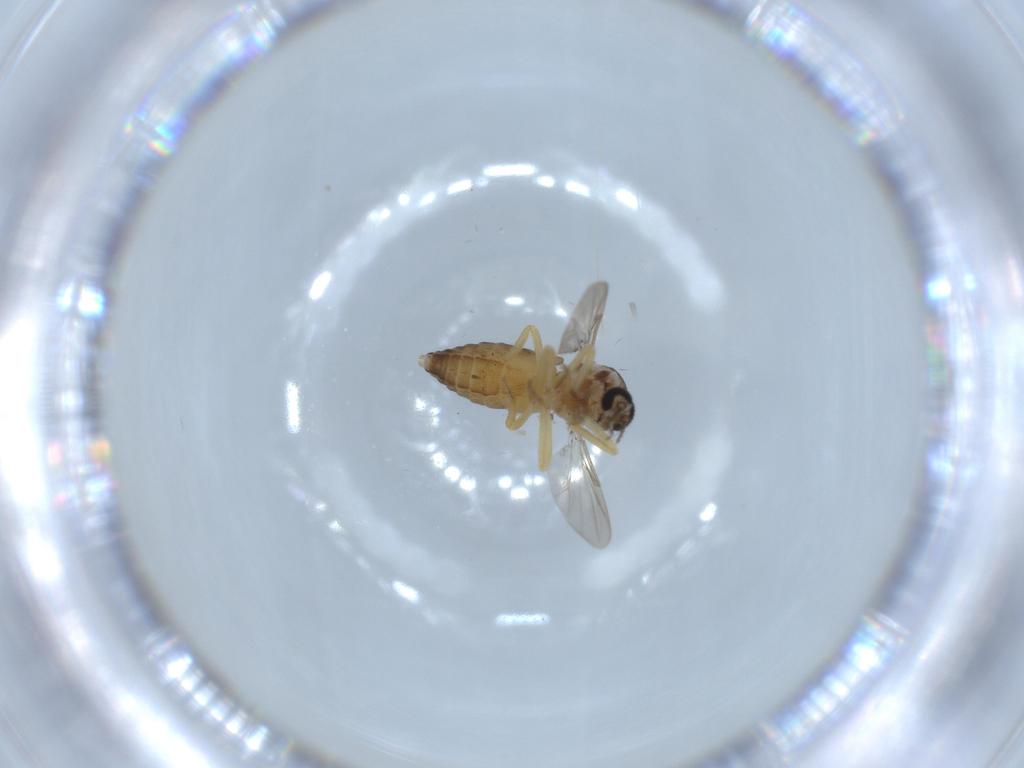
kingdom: Animalia
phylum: Arthropoda
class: Insecta
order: Diptera
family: Ceratopogonidae
